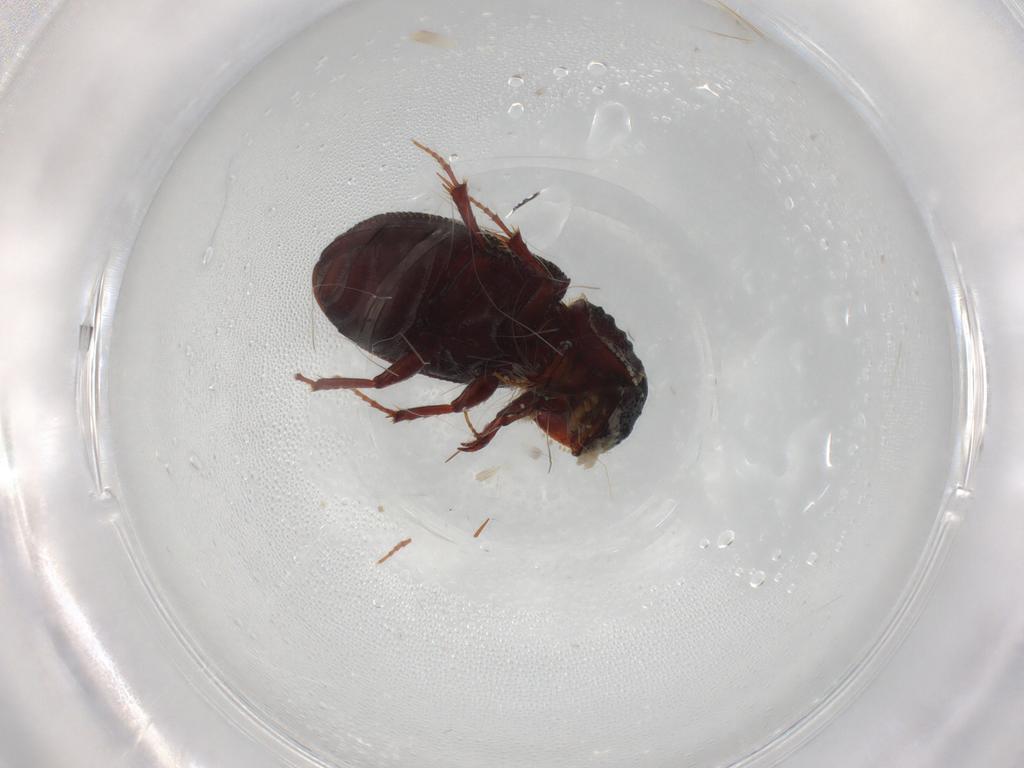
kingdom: Animalia
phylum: Arthropoda
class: Insecta
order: Coleoptera
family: Scarabaeidae
